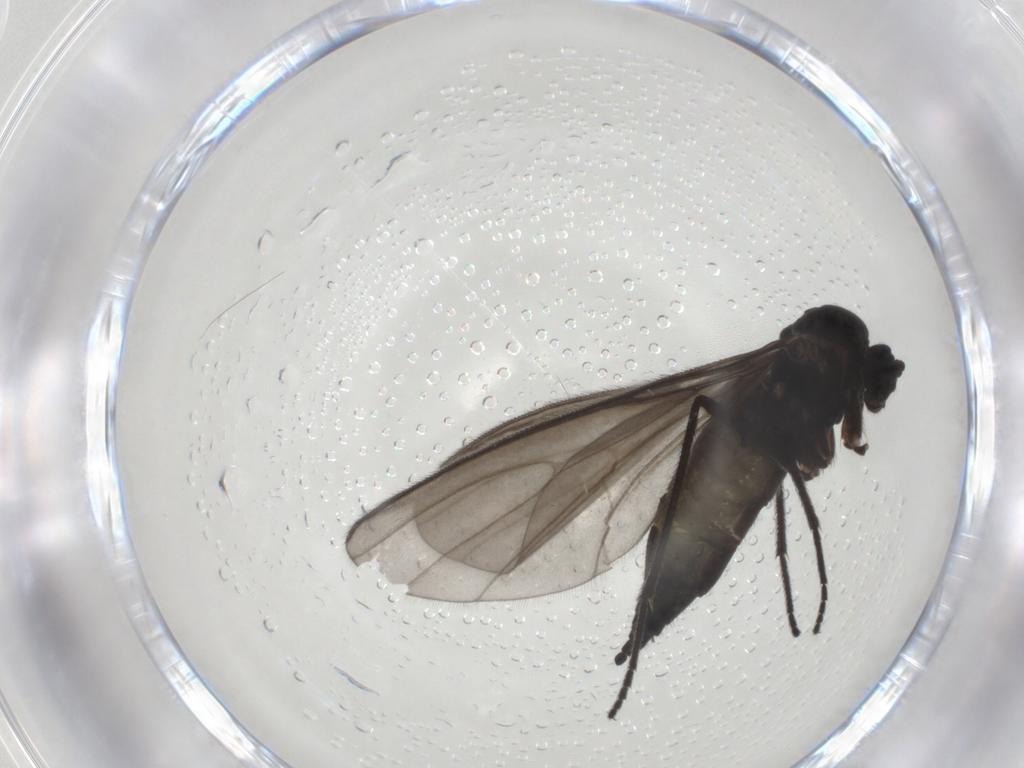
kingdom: Animalia
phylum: Arthropoda
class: Insecta
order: Diptera
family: Sciaridae
